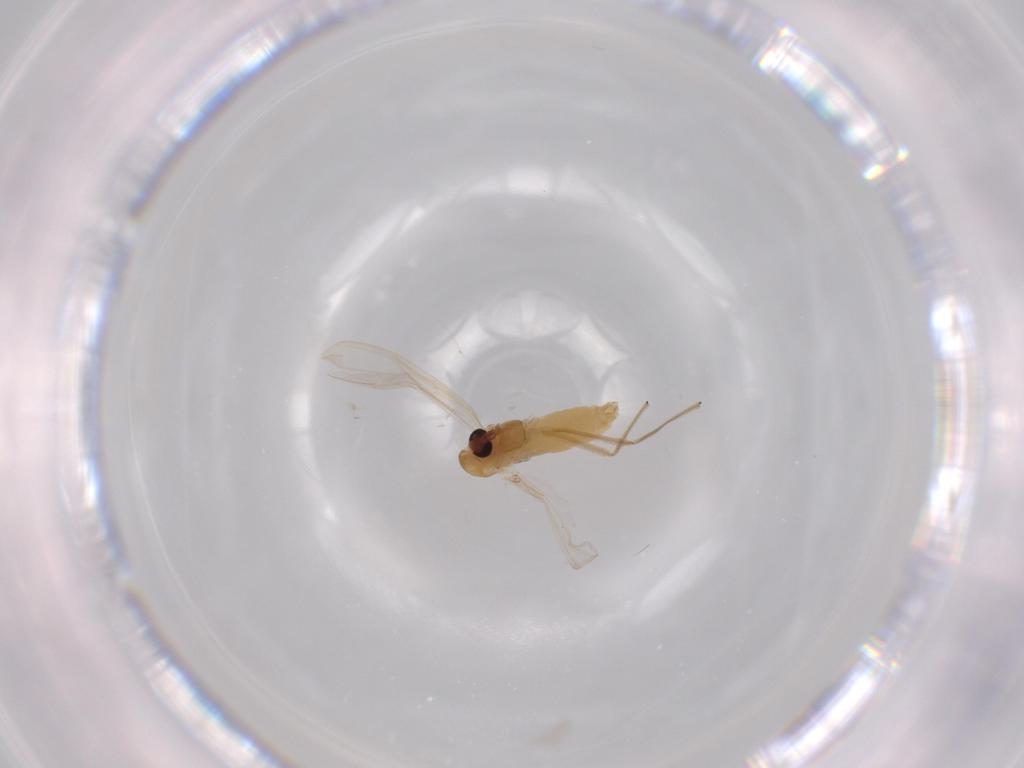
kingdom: Animalia
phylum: Arthropoda
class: Insecta
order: Diptera
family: Chironomidae
